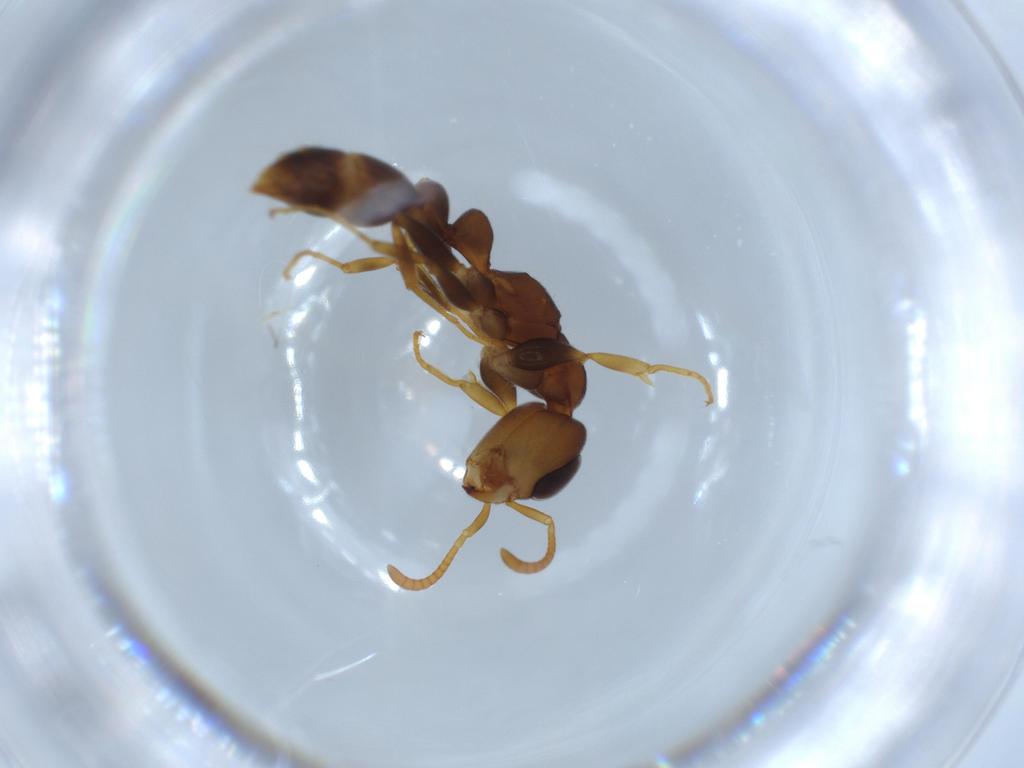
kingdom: Animalia
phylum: Arthropoda
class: Insecta
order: Hymenoptera
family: Formicidae
